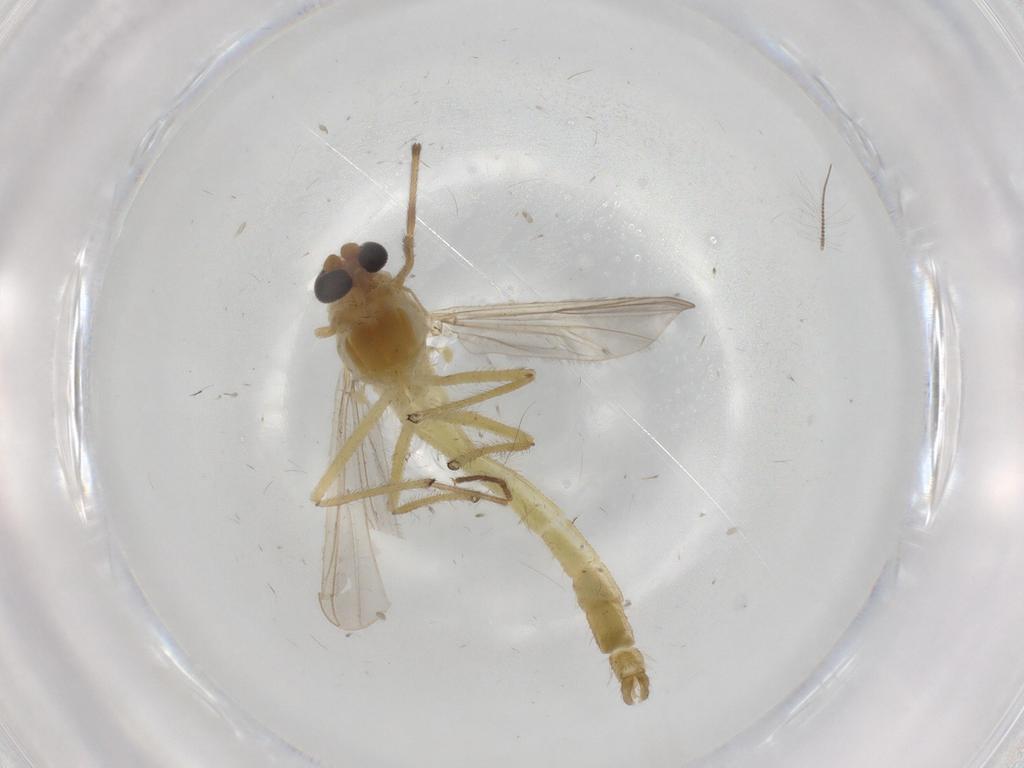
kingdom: Animalia
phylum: Arthropoda
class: Insecta
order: Diptera
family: Chironomidae
